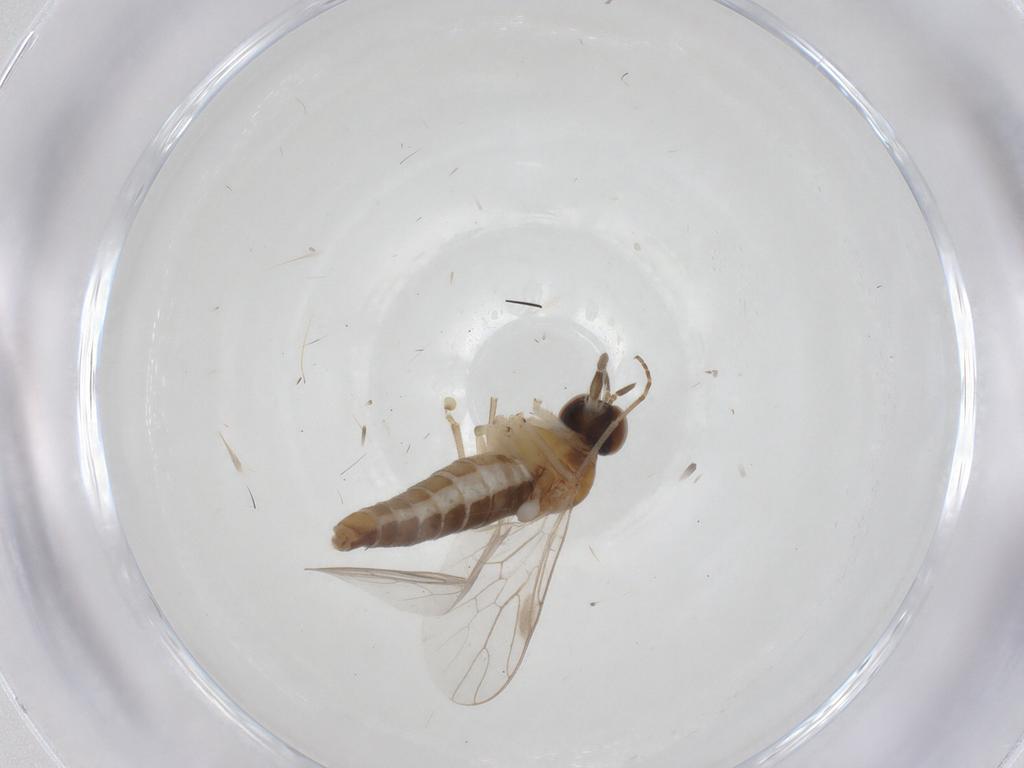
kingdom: Animalia
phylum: Arthropoda
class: Insecta
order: Diptera
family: Scenopinidae
